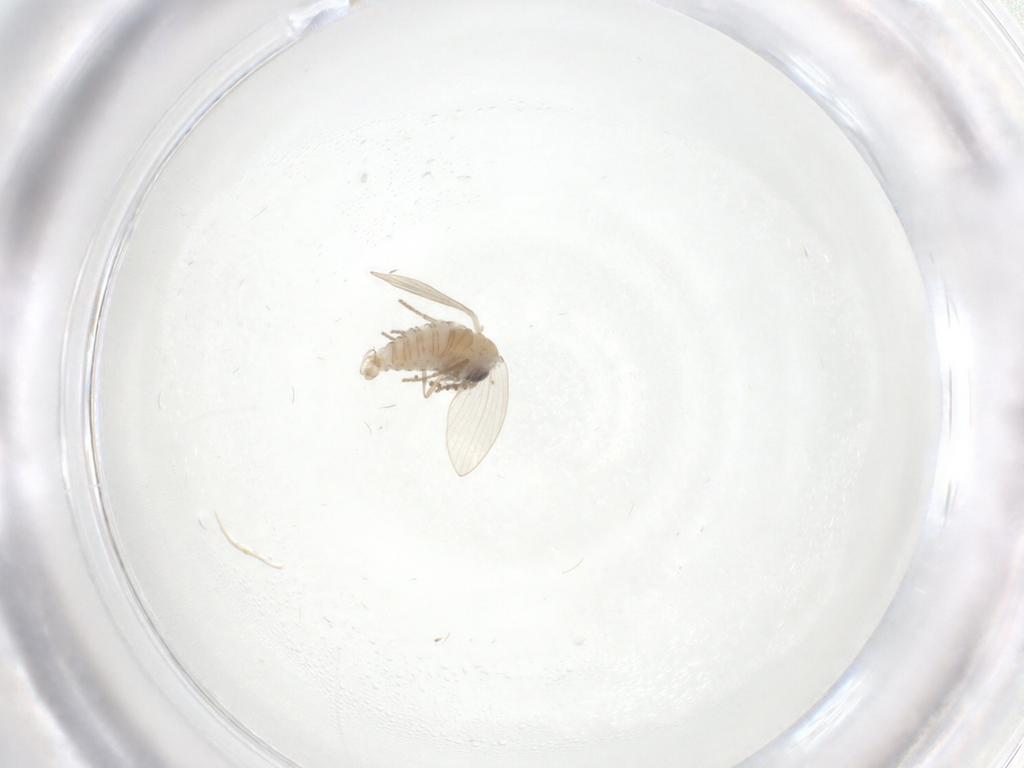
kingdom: Animalia
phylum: Arthropoda
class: Insecta
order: Diptera
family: Psychodidae
